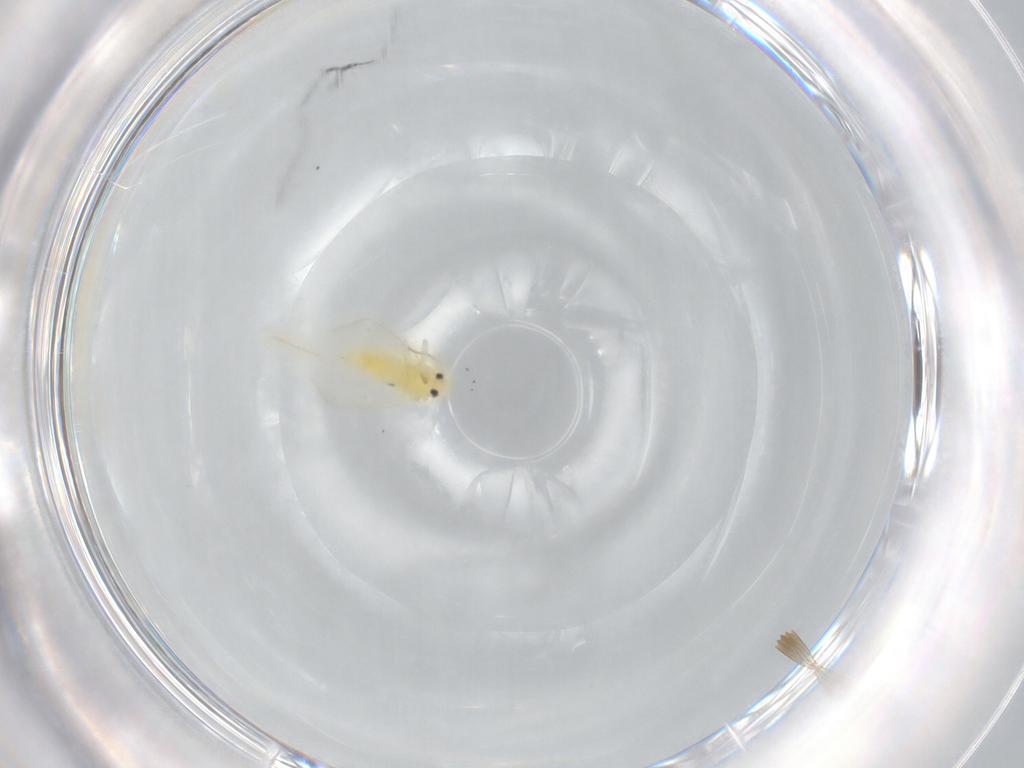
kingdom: Animalia
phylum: Arthropoda
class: Insecta
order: Hemiptera
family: Aleyrodidae
